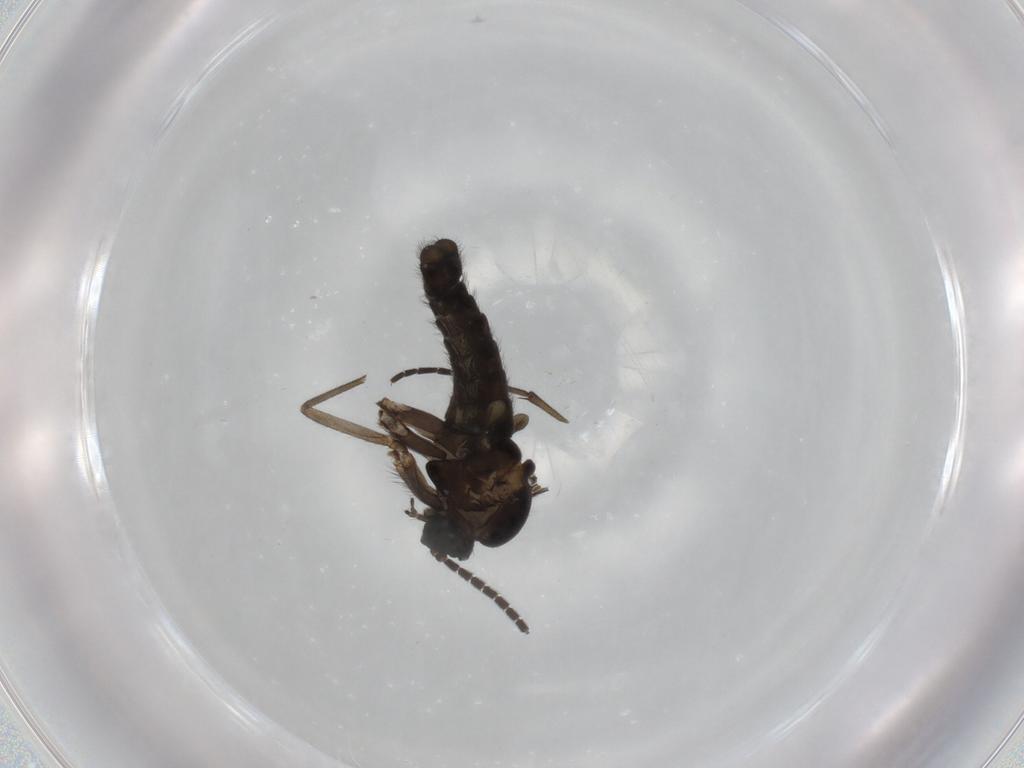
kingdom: Animalia
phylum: Arthropoda
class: Insecta
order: Diptera
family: Sciaridae
